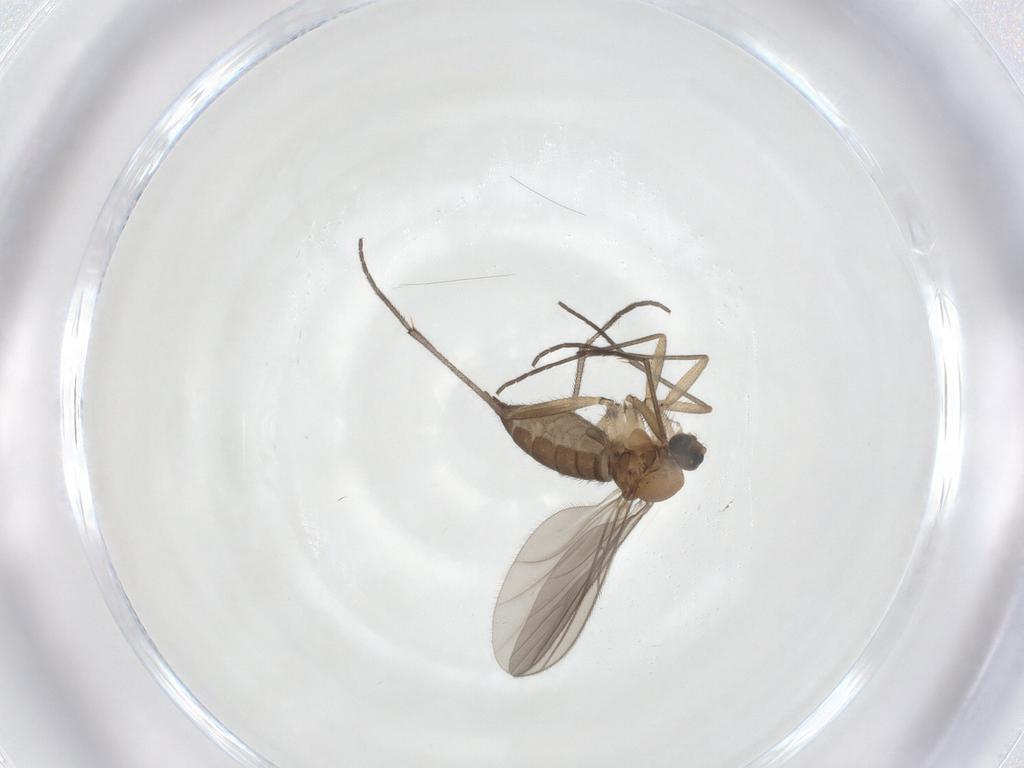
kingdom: Animalia
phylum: Arthropoda
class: Insecta
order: Diptera
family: Sciaridae
